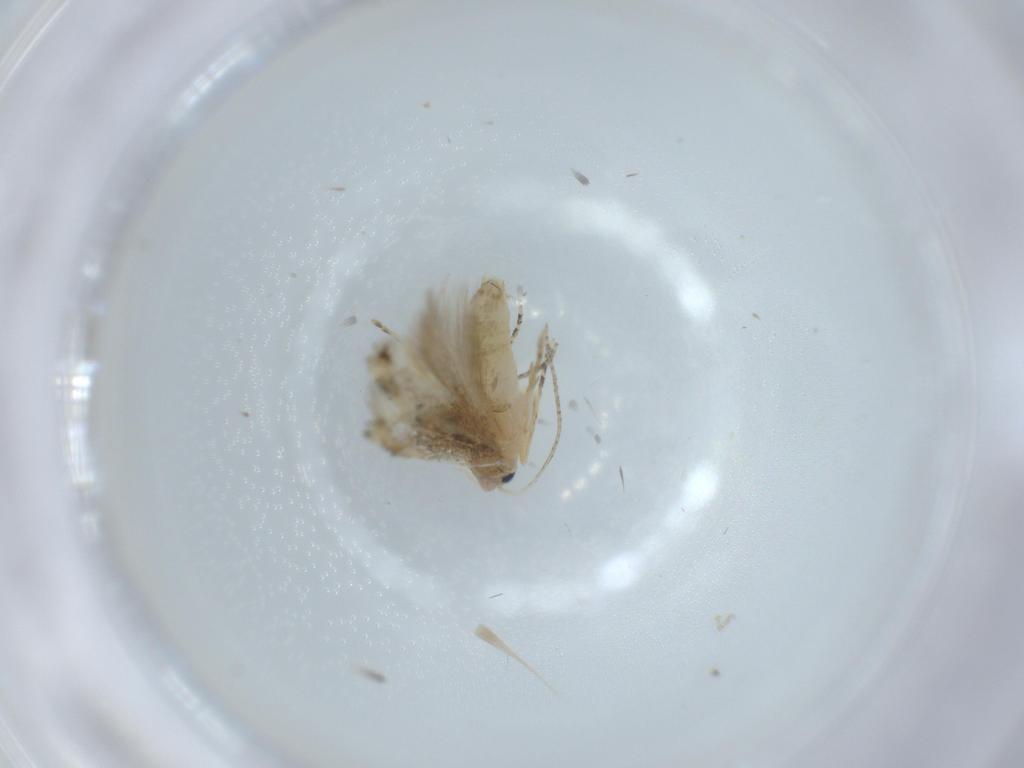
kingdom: Animalia
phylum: Arthropoda
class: Insecta
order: Lepidoptera
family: Bucculatricidae
